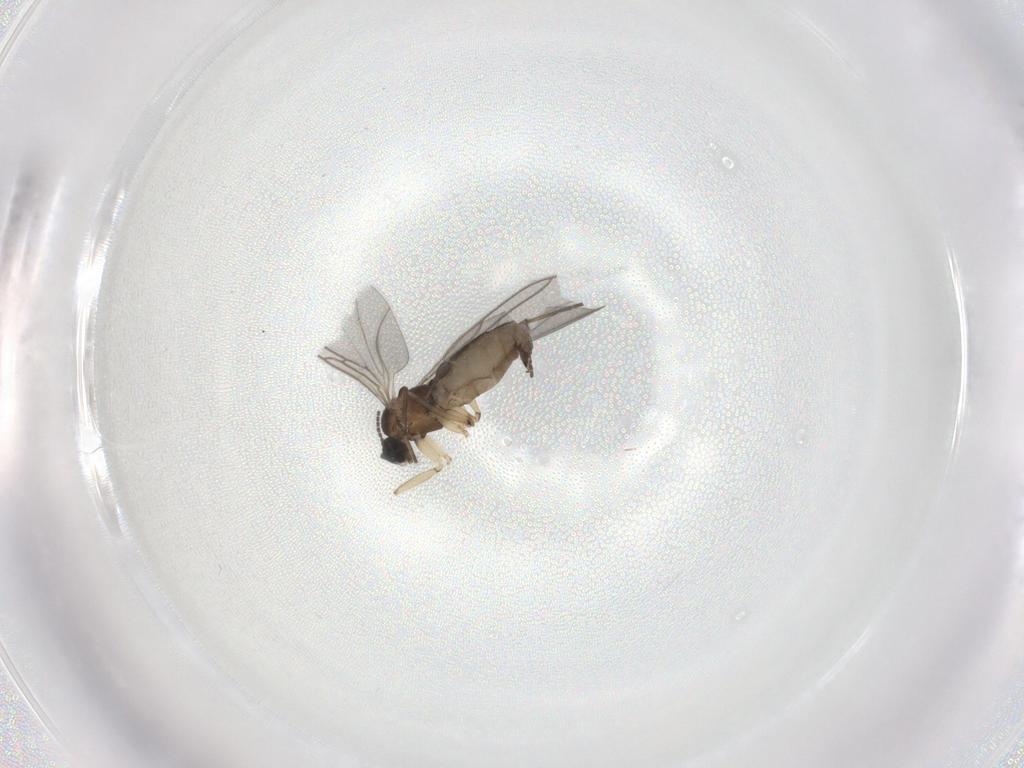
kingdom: Animalia
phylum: Arthropoda
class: Insecta
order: Diptera
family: Sciaridae
